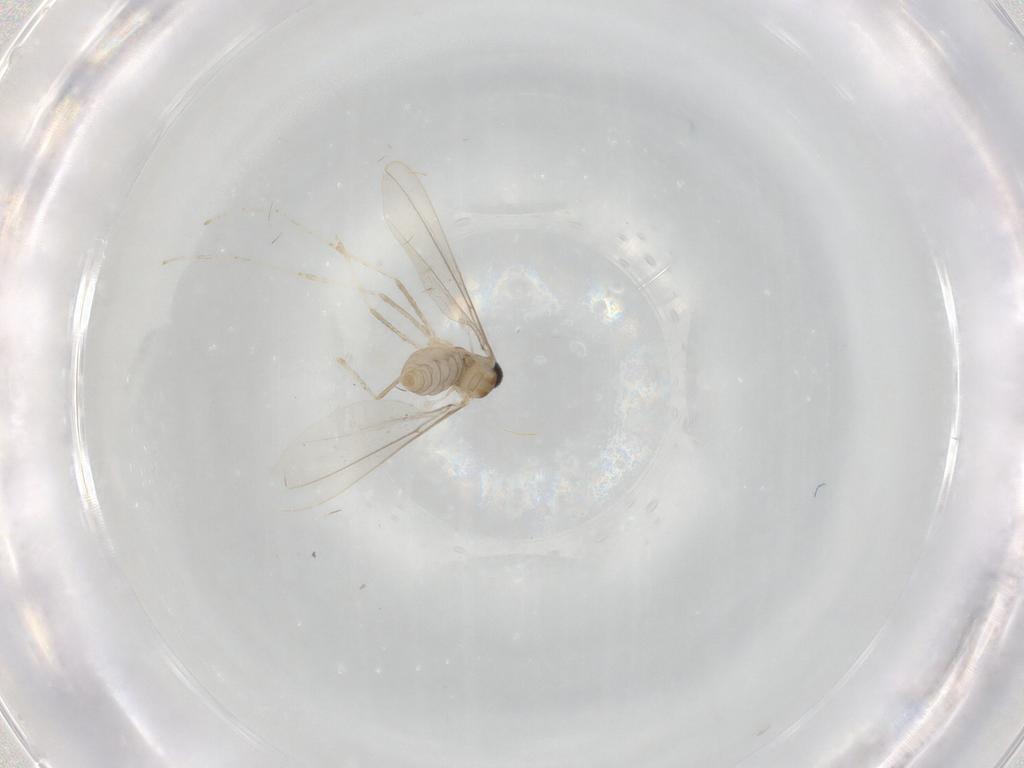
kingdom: Animalia
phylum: Arthropoda
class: Insecta
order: Diptera
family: Cecidomyiidae
